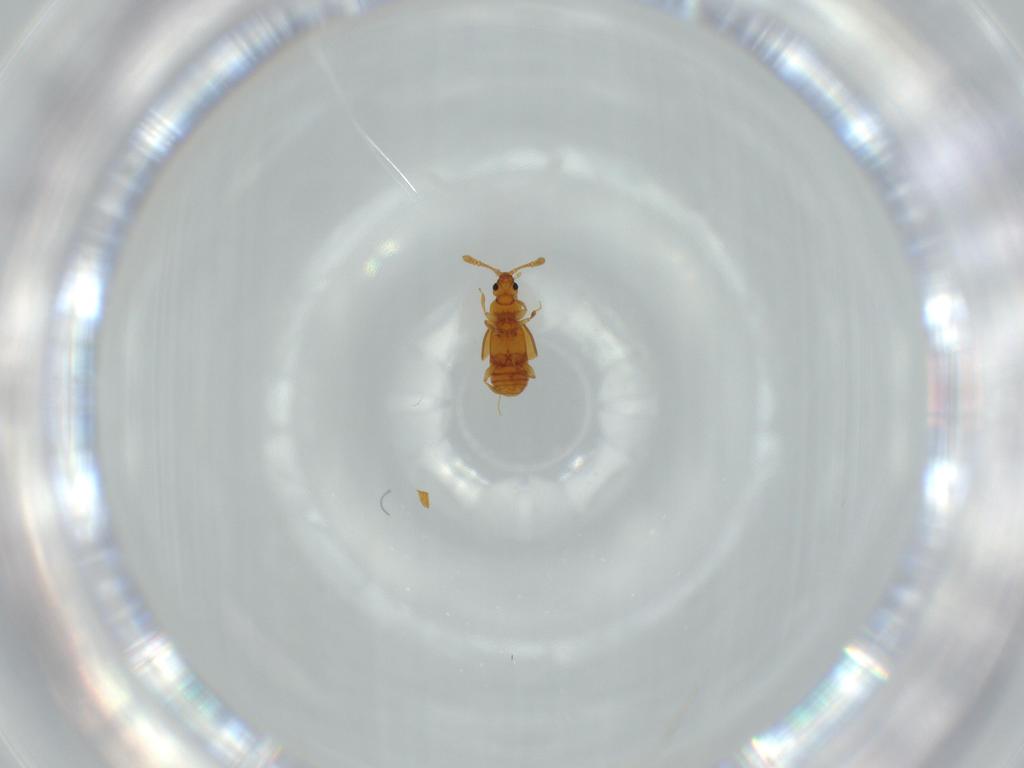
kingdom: Animalia
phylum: Arthropoda
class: Insecta
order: Coleoptera
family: Staphylinidae
